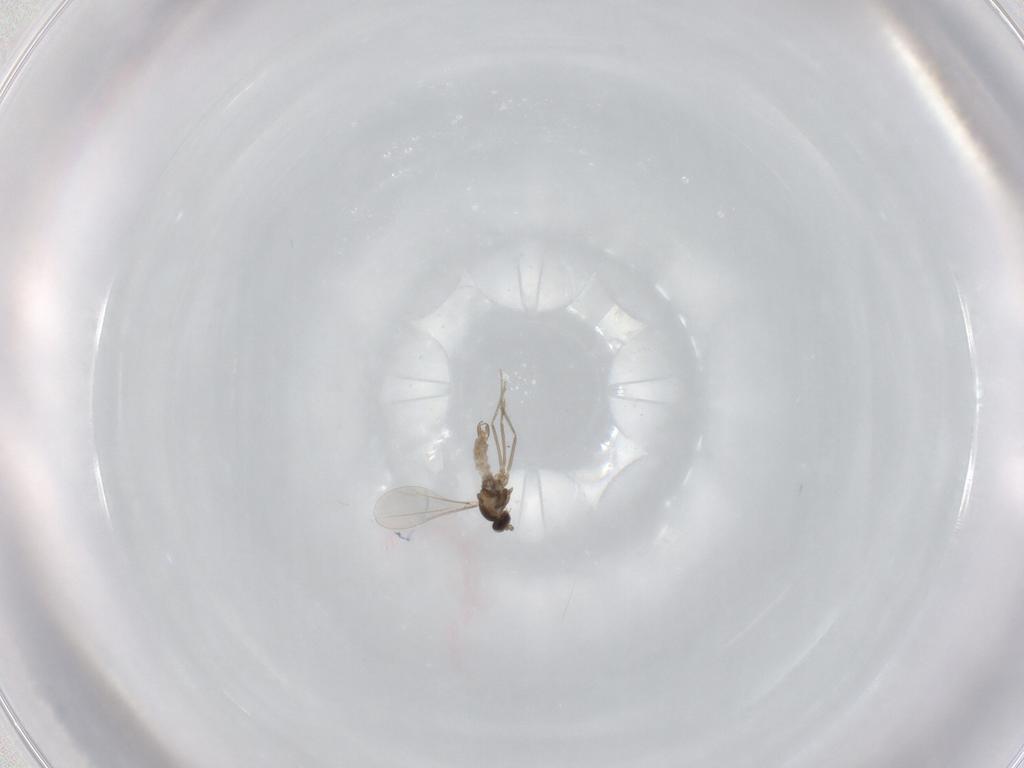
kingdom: Animalia
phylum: Arthropoda
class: Insecta
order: Diptera
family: Cecidomyiidae
